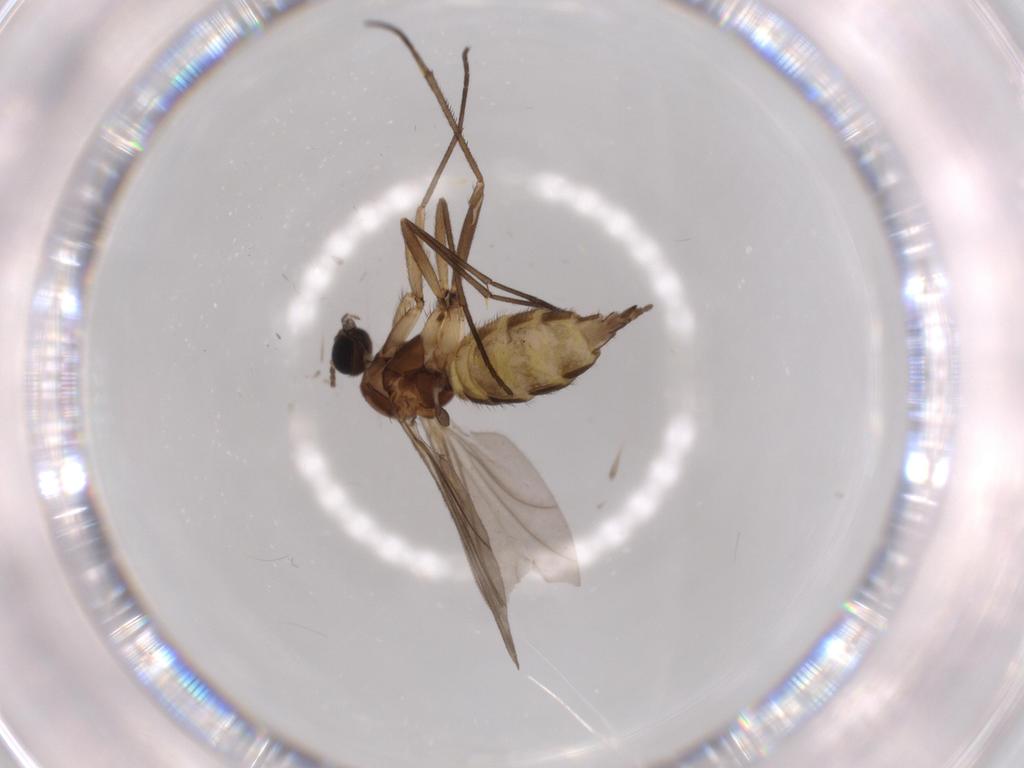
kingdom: Animalia
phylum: Arthropoda
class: Insecta
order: Diptera
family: Sciaridae
